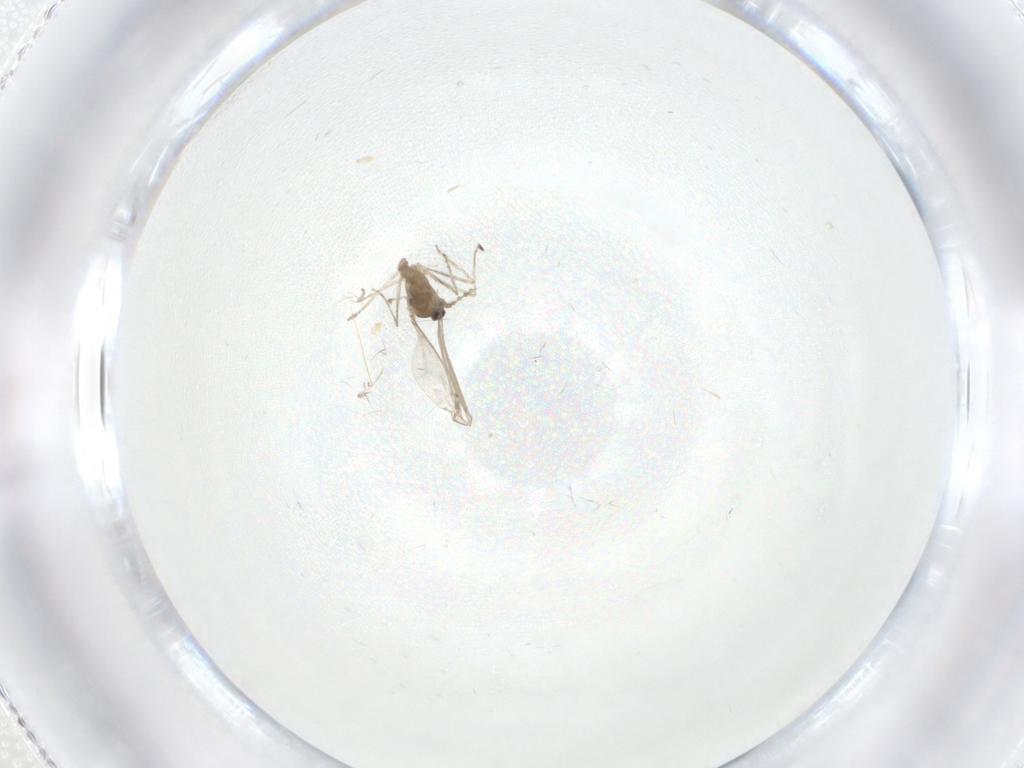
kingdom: Animalia
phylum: Arthropoda
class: Insecta
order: Diptera
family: Cecidomyiidae
